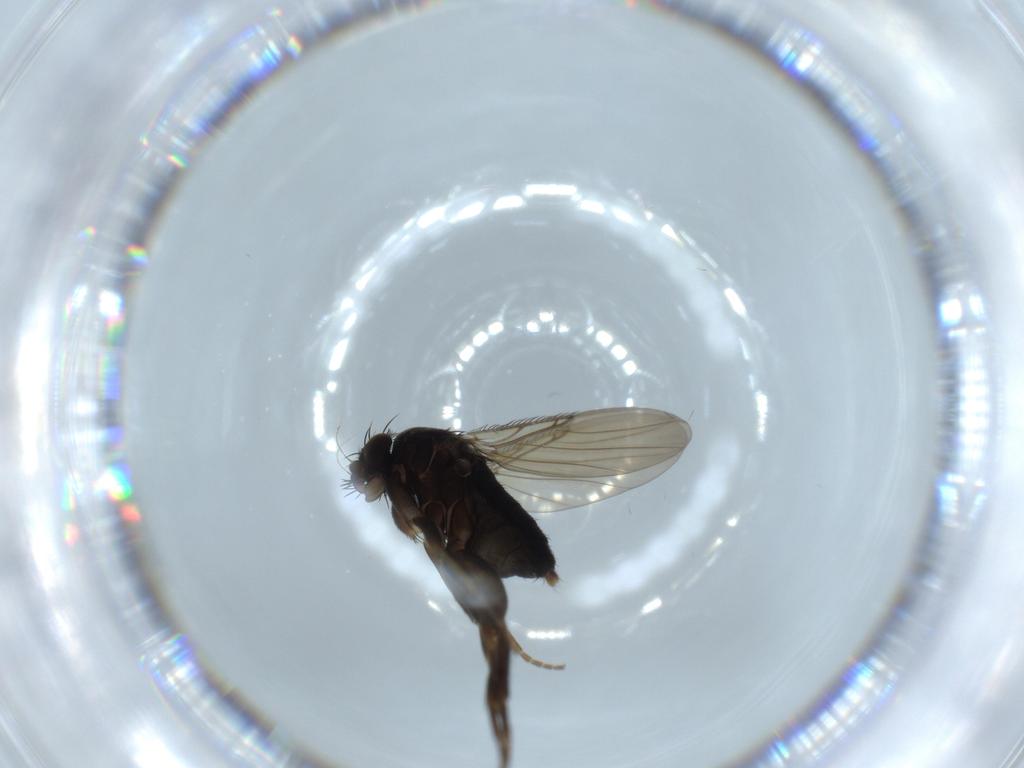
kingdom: Animalia
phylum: Arthropoda
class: Insecta
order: Diptera
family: Phoridae
